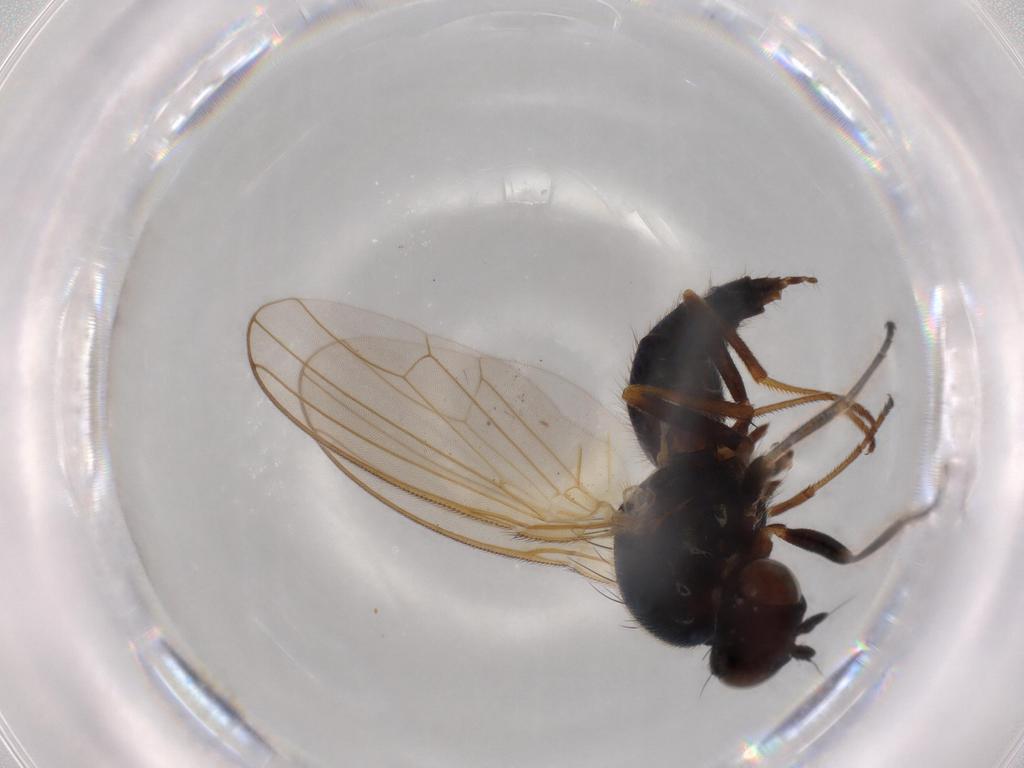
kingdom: Animalia
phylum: Arthropoda
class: Insecta
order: Diptera
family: Hybotidae
